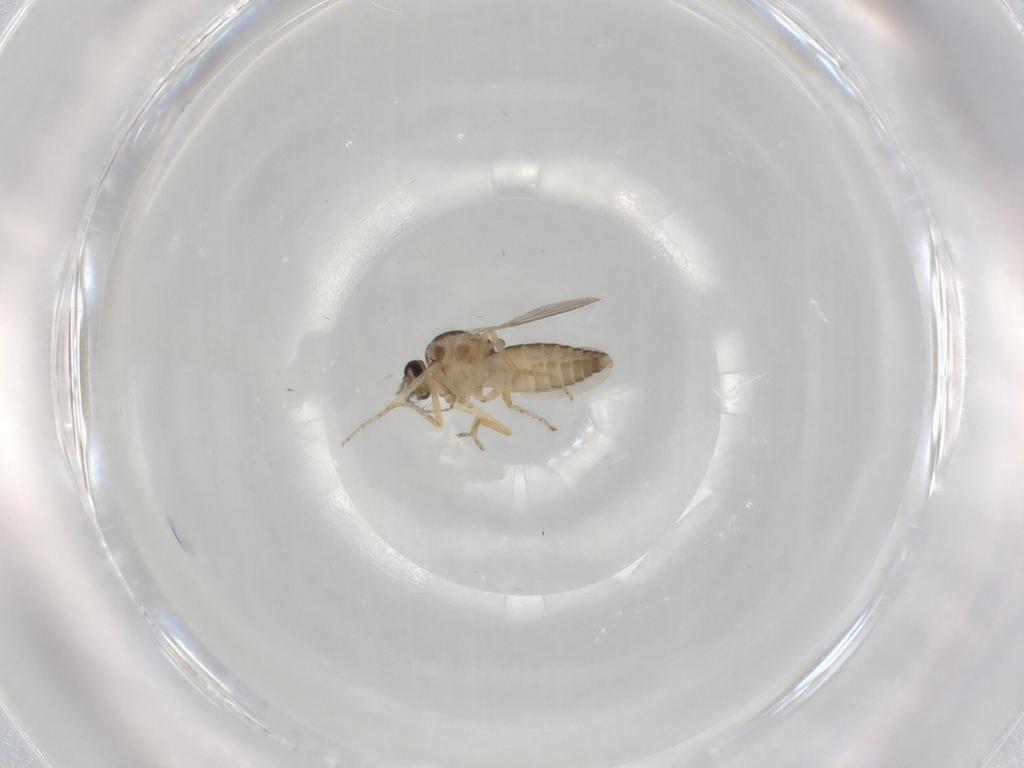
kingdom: Animalia
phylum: Arthropoda
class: Insecta
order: Diptera
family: Ceratopogonidae
